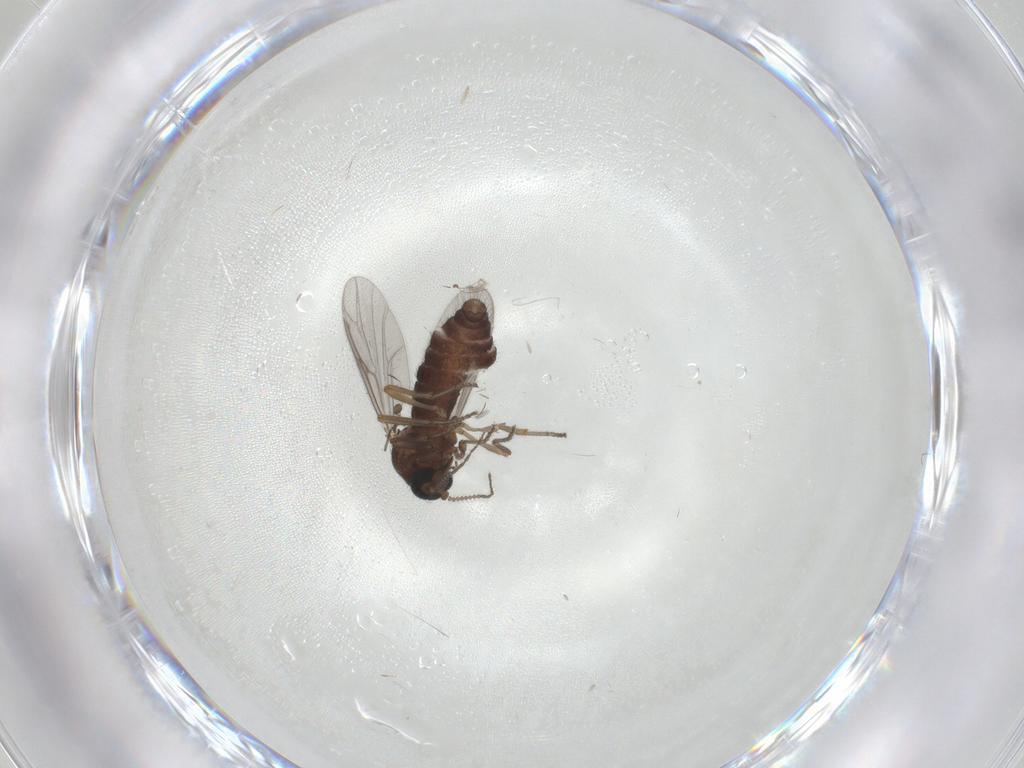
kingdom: Animalia
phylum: Arthropoda
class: Insecta
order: Diptera
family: Ceratopogonidae
